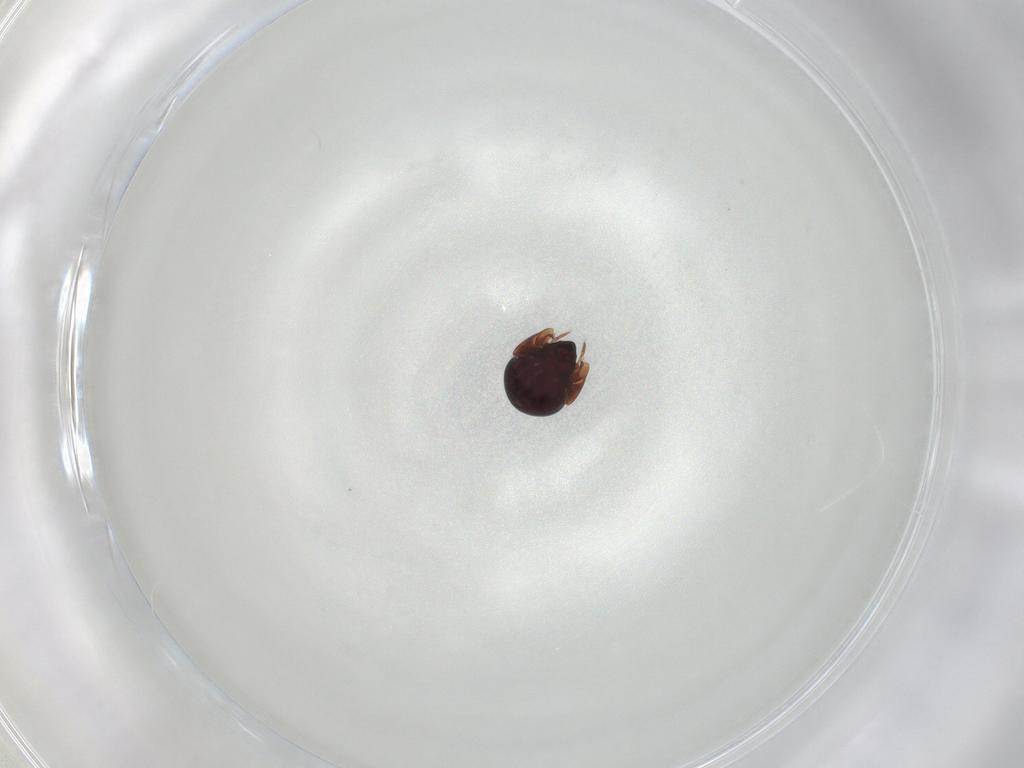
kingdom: Animalia
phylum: Arthropoda
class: Arachnida
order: Sarcoptiformes
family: Galumnidae
